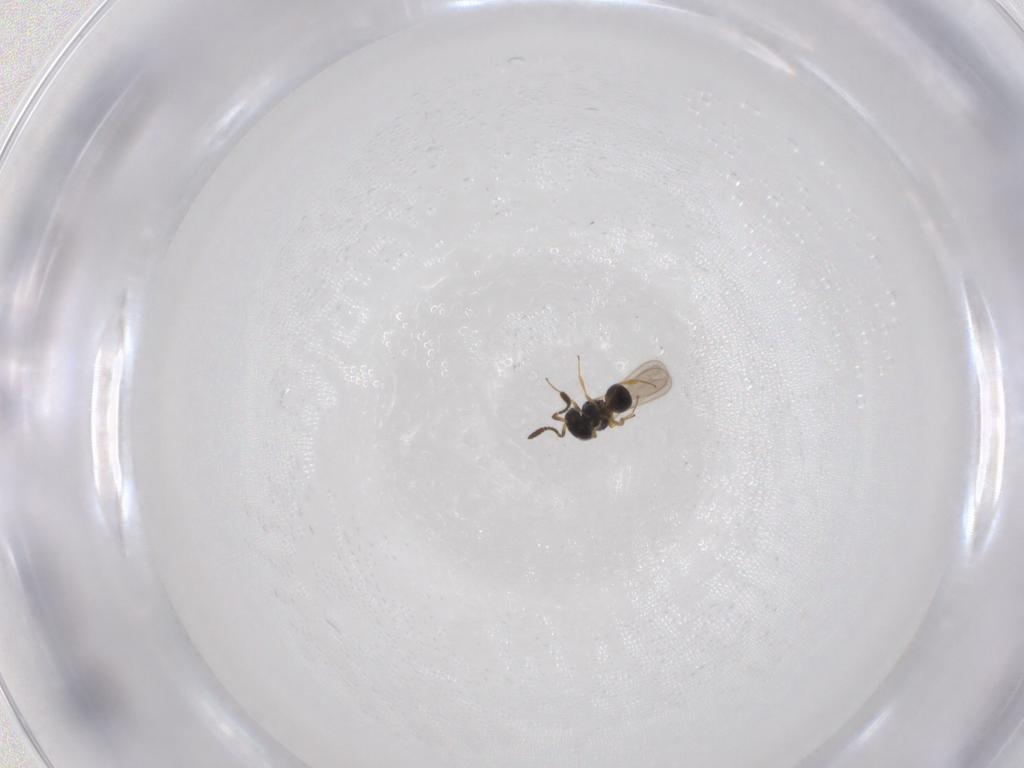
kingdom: Animalia
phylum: Arthropoda
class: Insecta
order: Hymenoptera
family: Scelionidae
